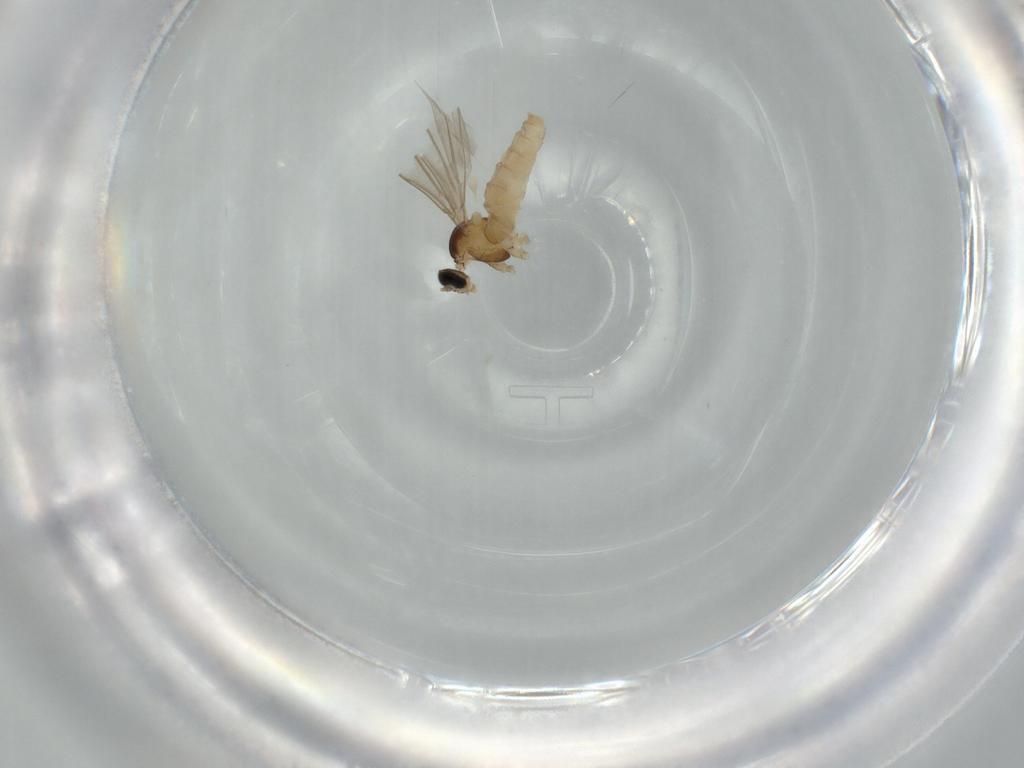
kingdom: Animalia
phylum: Arthropoda
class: Insecta
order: Diptera
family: Cecidomyiidae
